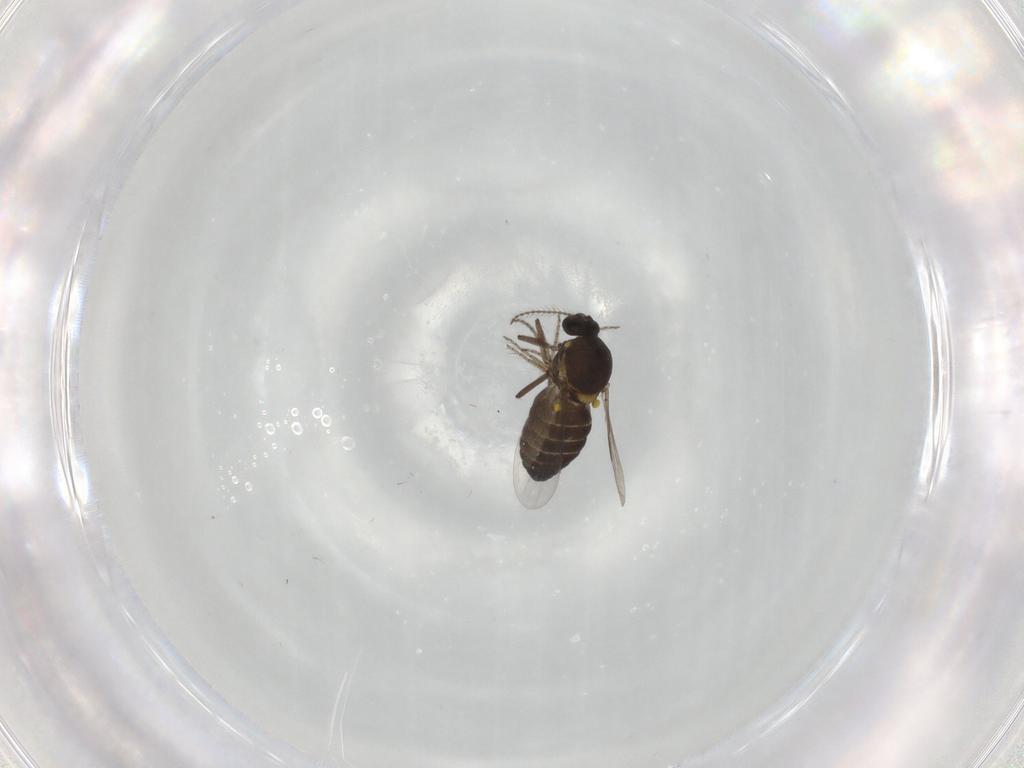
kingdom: Animalia
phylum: Arthropoda
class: Insecta
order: Diptera
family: Ceratopogonidae
